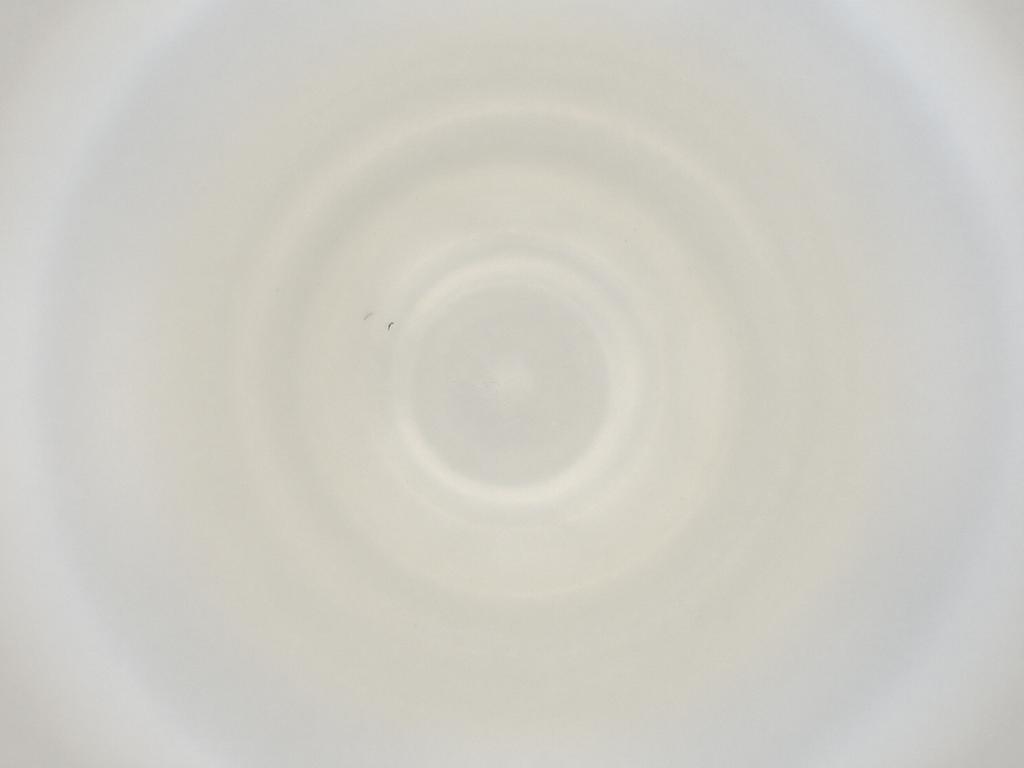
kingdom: Animalia
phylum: Arthropoda
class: Insecta
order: Diptera
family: Cecidomyiidae
